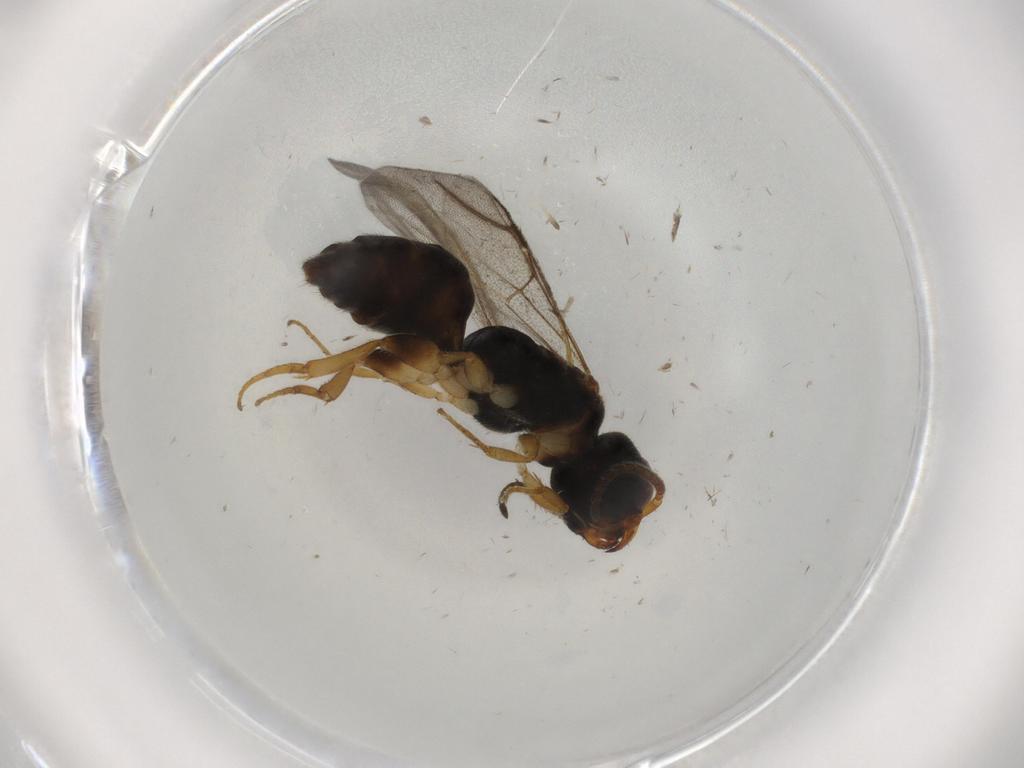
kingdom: Animalia
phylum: Arthropoda
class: Insecta
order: Hymenoptera
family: Bethylidae
